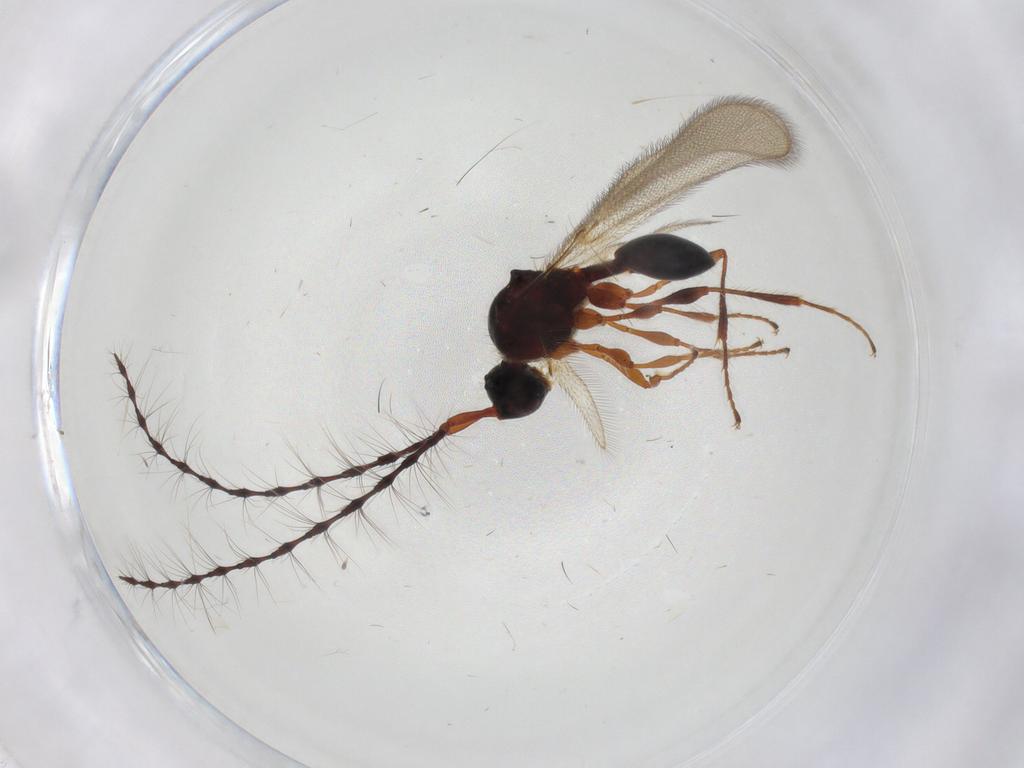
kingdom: Animalia
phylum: Arthropoda
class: Insecta
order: Hymenoptera
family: Diapriidae
